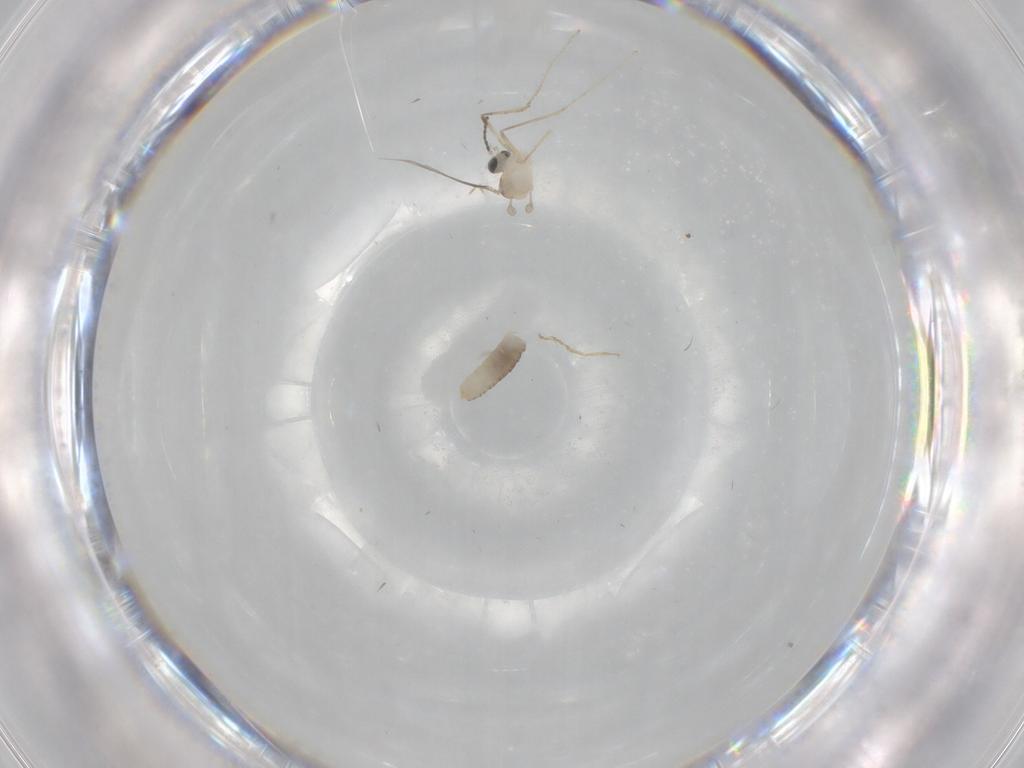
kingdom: Animalia
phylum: Arthropoda
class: Insecta
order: Diptera
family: Cecidomyiidae
